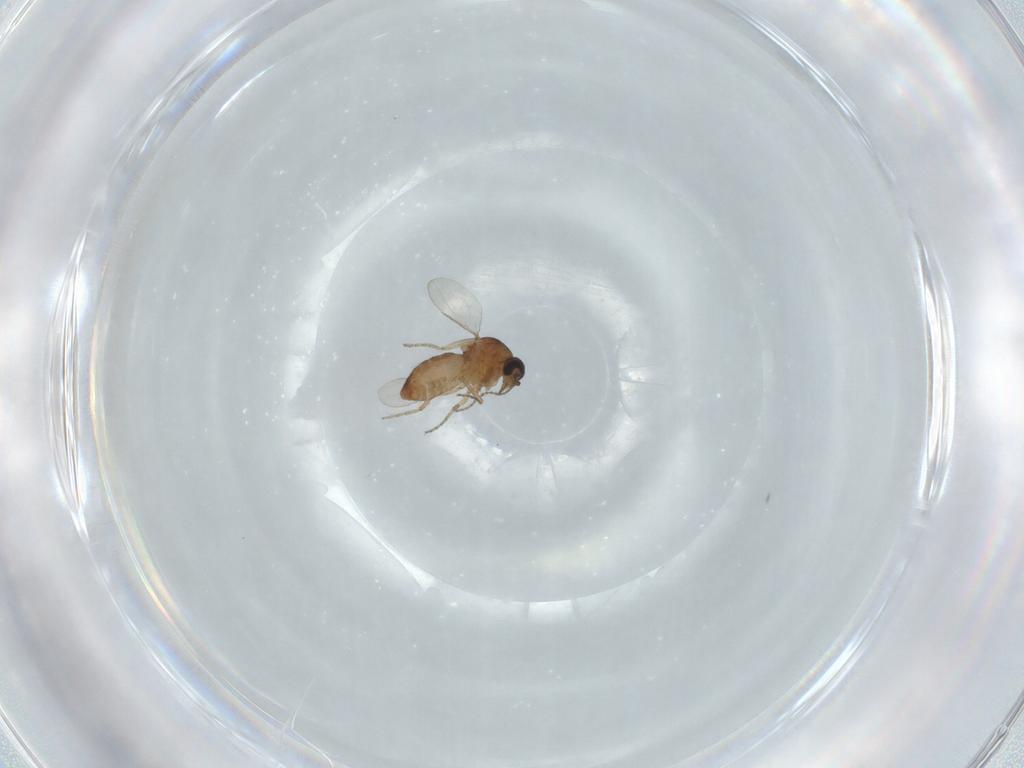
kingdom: Animalia
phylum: Arthropoda
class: Insecta
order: Diptera
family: Ceratopogonidae
